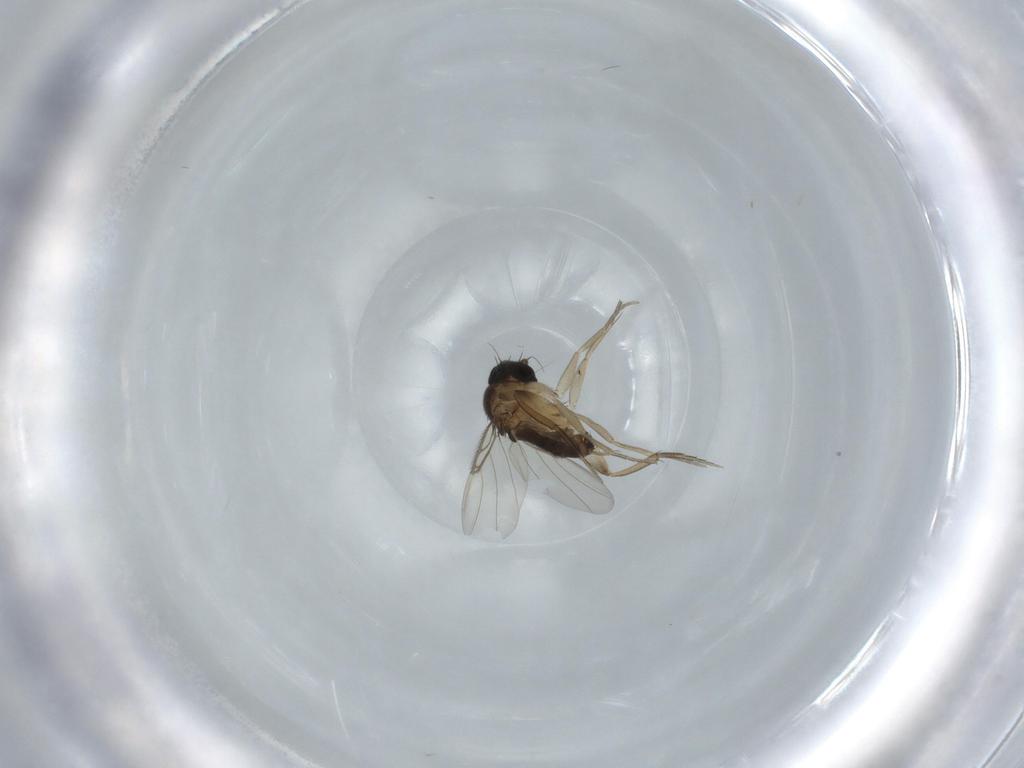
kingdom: Animalia
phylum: Arthropoda
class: Insecta
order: Diptera
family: Phoridae
